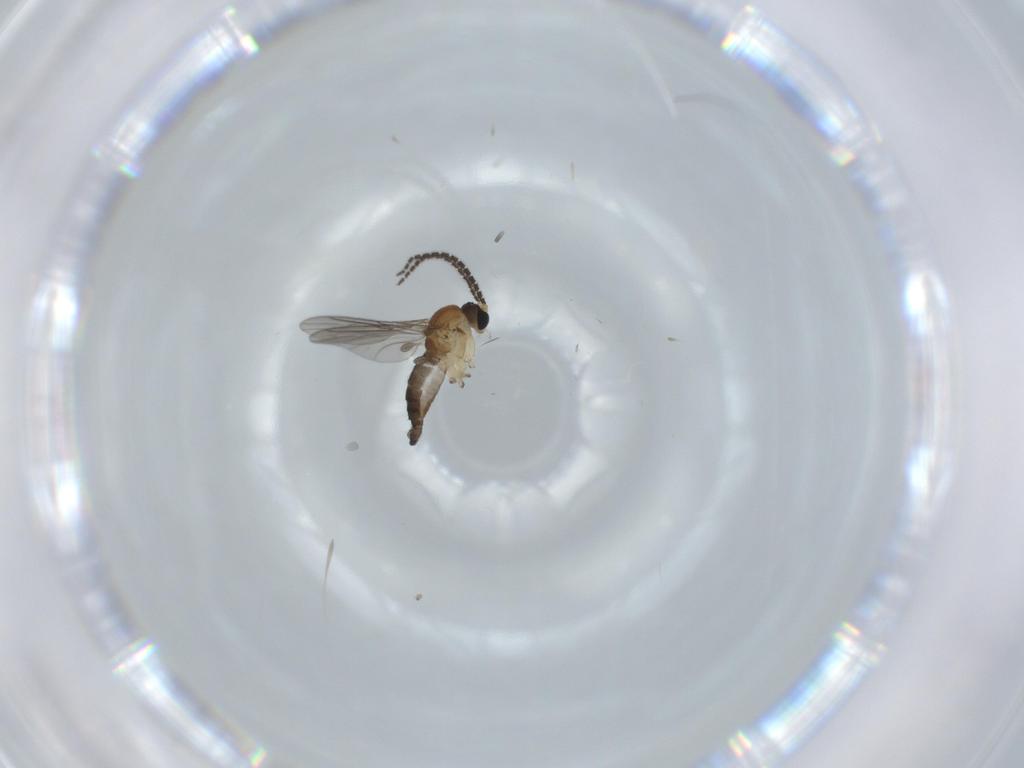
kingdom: Animalia
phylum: Arthropoda
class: Insecta
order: Diptera
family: Sciaridae
